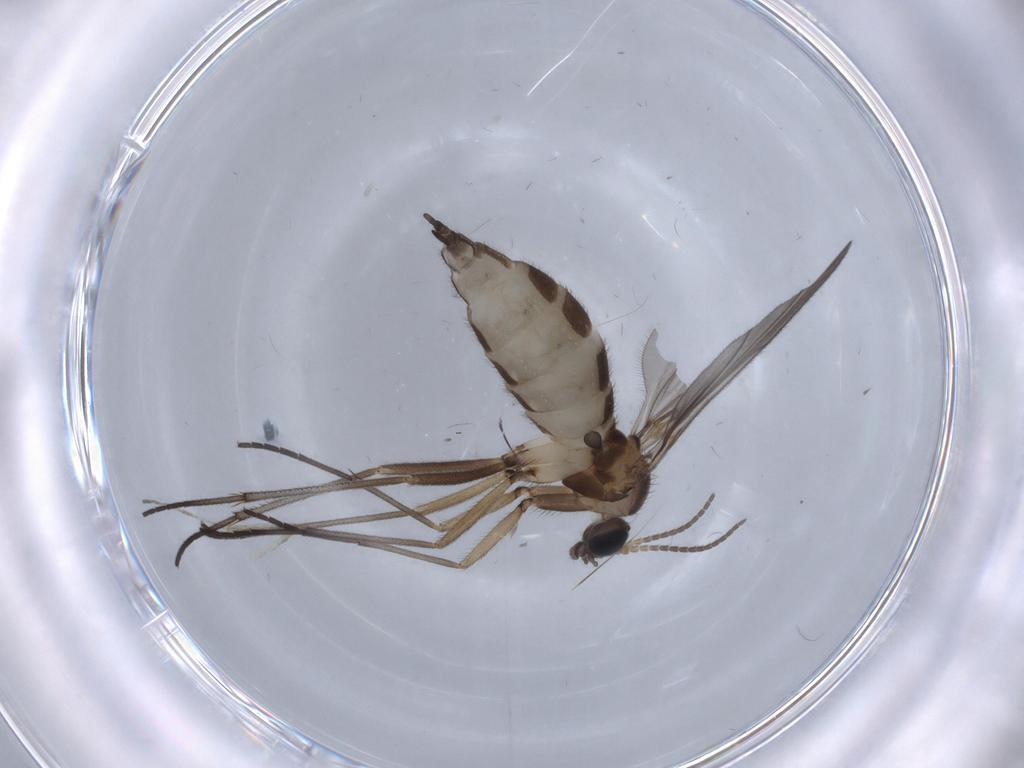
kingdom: Animalia
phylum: Arthropoda
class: Insecta
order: Diptera
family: Sciaridae
